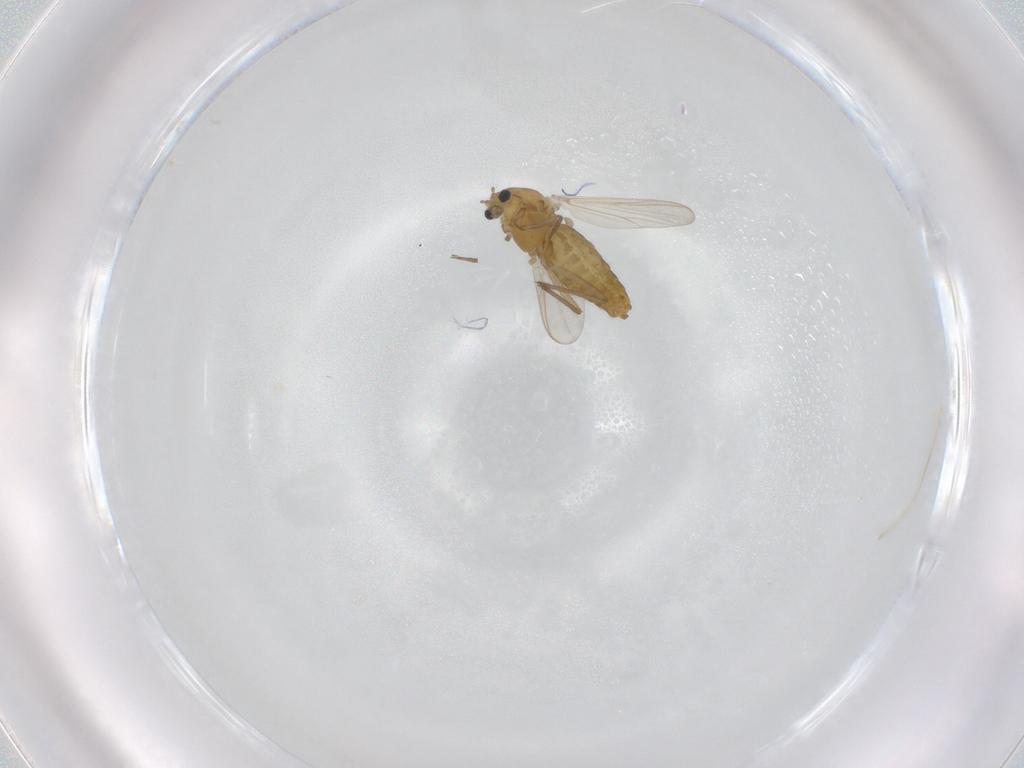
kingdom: Animalia
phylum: Arthropoda
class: Insecta
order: Diptera
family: Chironomidae
